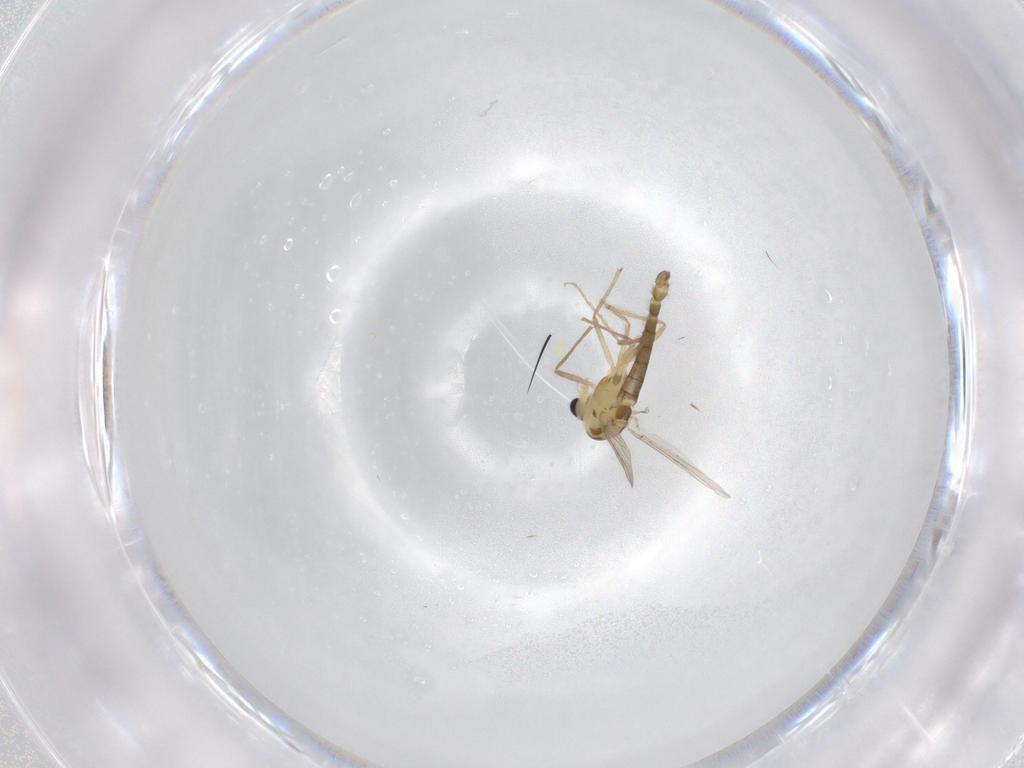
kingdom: Animalia
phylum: Arthropoda
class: Insecta
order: Diptera
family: Chironomidae
